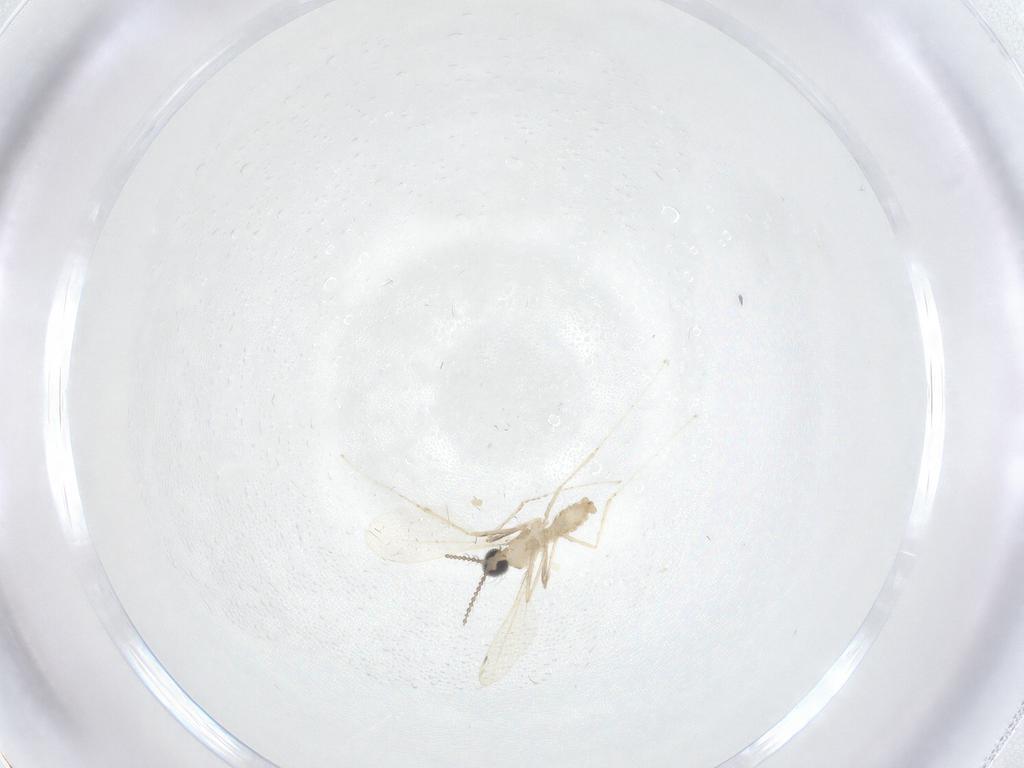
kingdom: Animalia
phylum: Arthropoda
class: Insecta
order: Diptera
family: Cecidomyiidae
